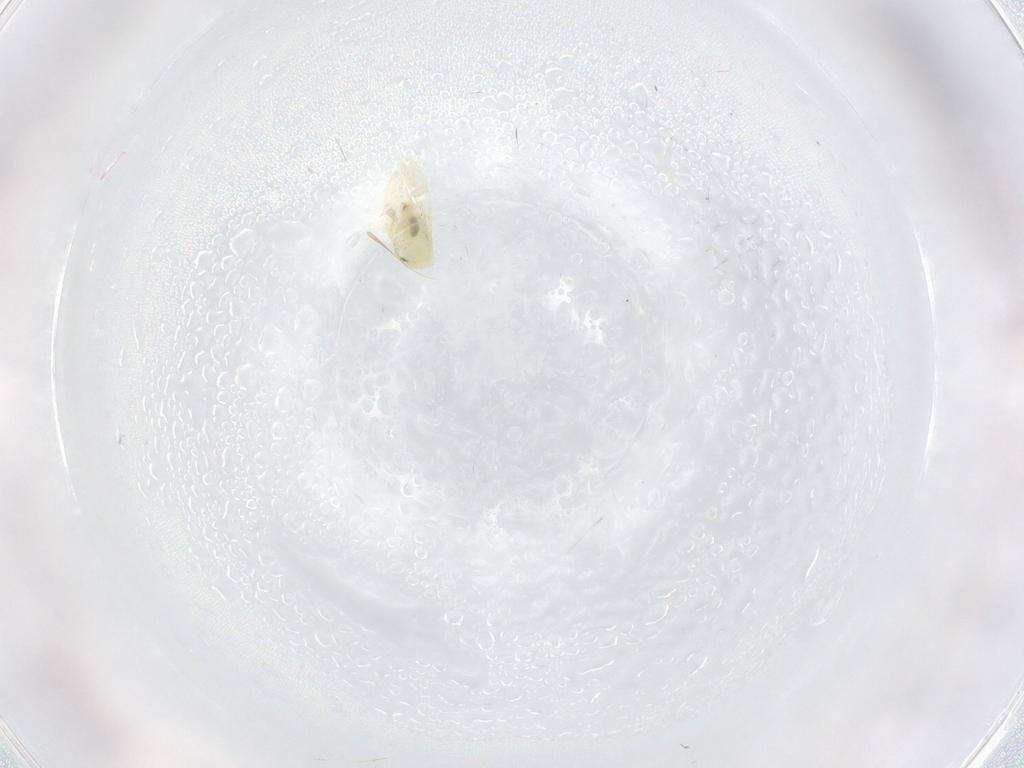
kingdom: Animalia
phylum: Arthropoda
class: Insecta
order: Hemiptera
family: Aleyrodidae
